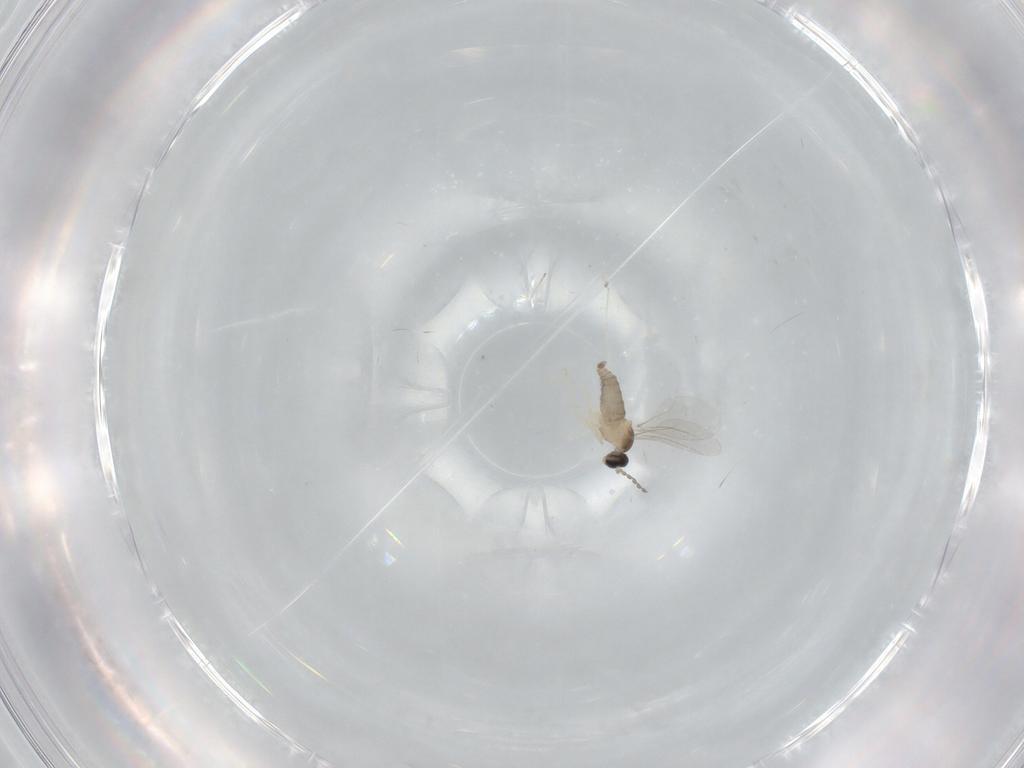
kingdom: Animalia
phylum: Arthropoda
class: Insecta
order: Diptera
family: Cecidomyiidae
